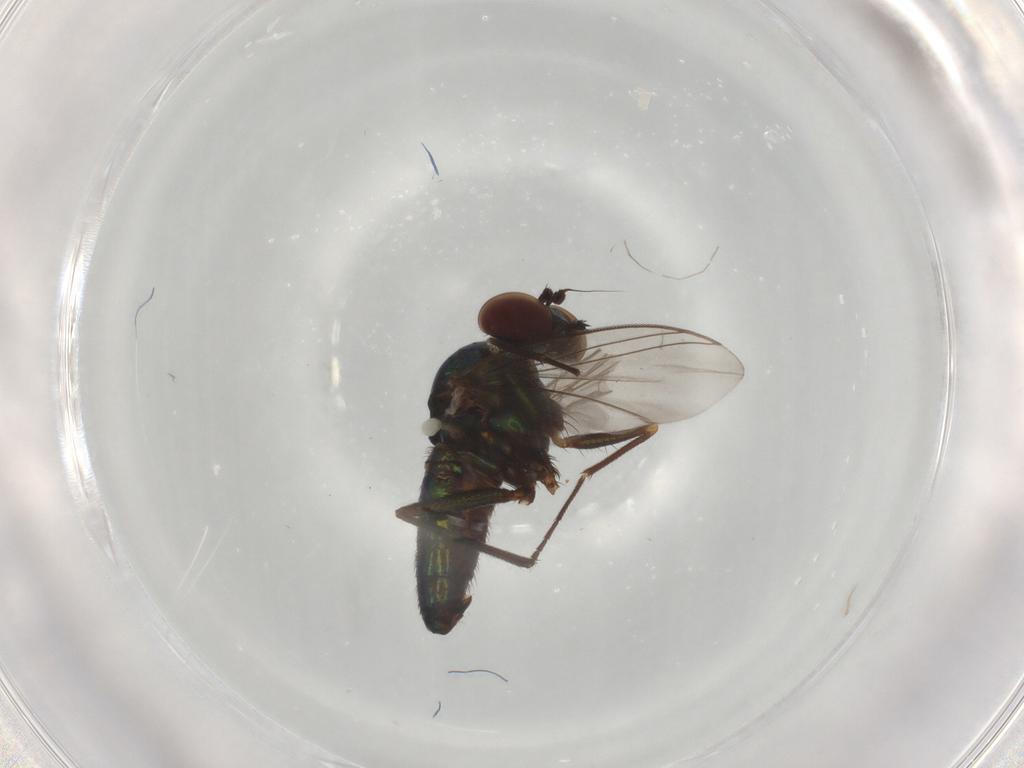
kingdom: Animalia
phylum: Arthropoda
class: Insecta
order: Diptera
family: Dolichopodidae
